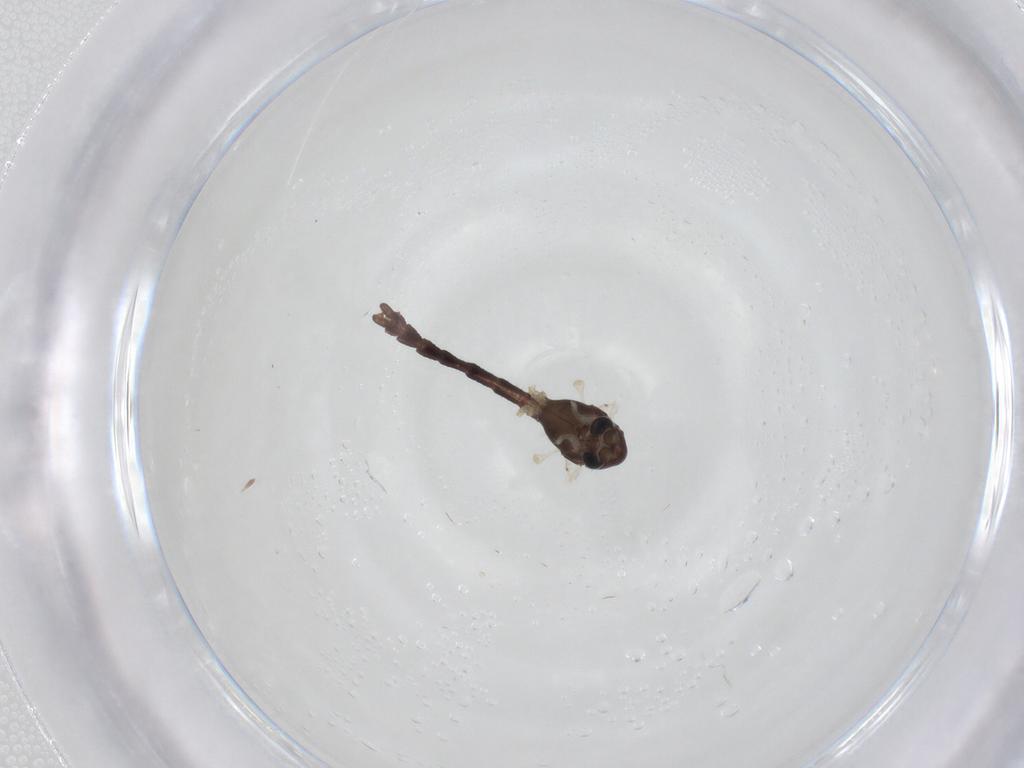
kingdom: Animalia
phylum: Arthropoda
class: Insecta
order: Diptera
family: Chironomidae
